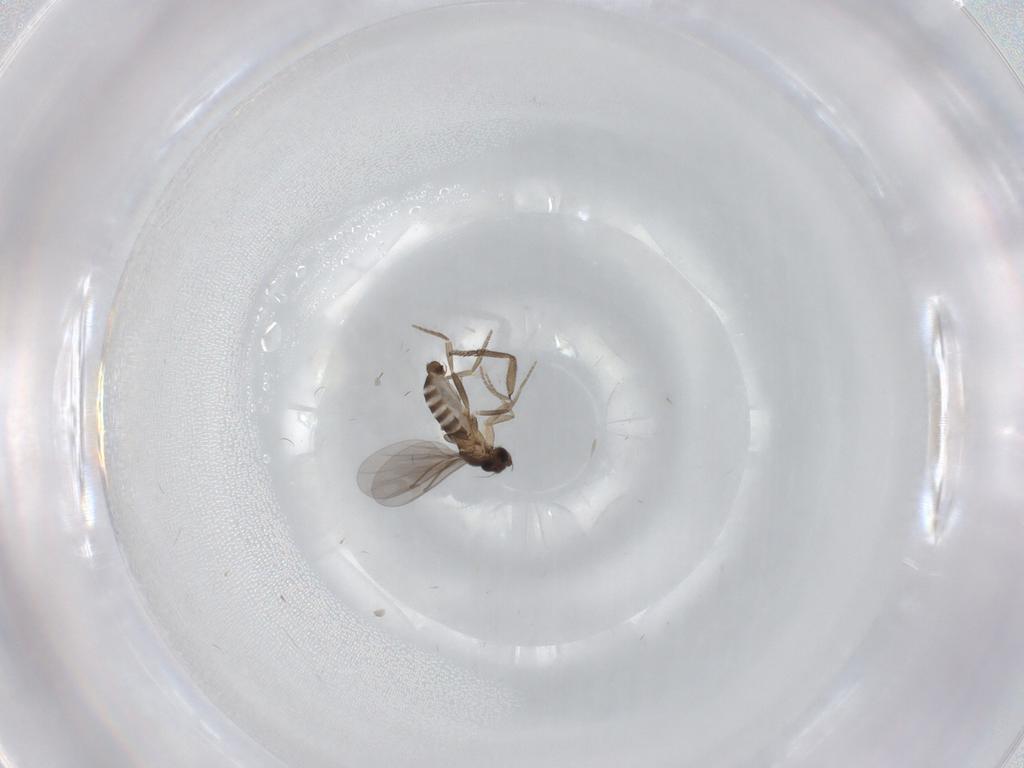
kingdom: Animalia
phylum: Arthropoda
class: Insecta
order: Diptera
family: Sciaridae
